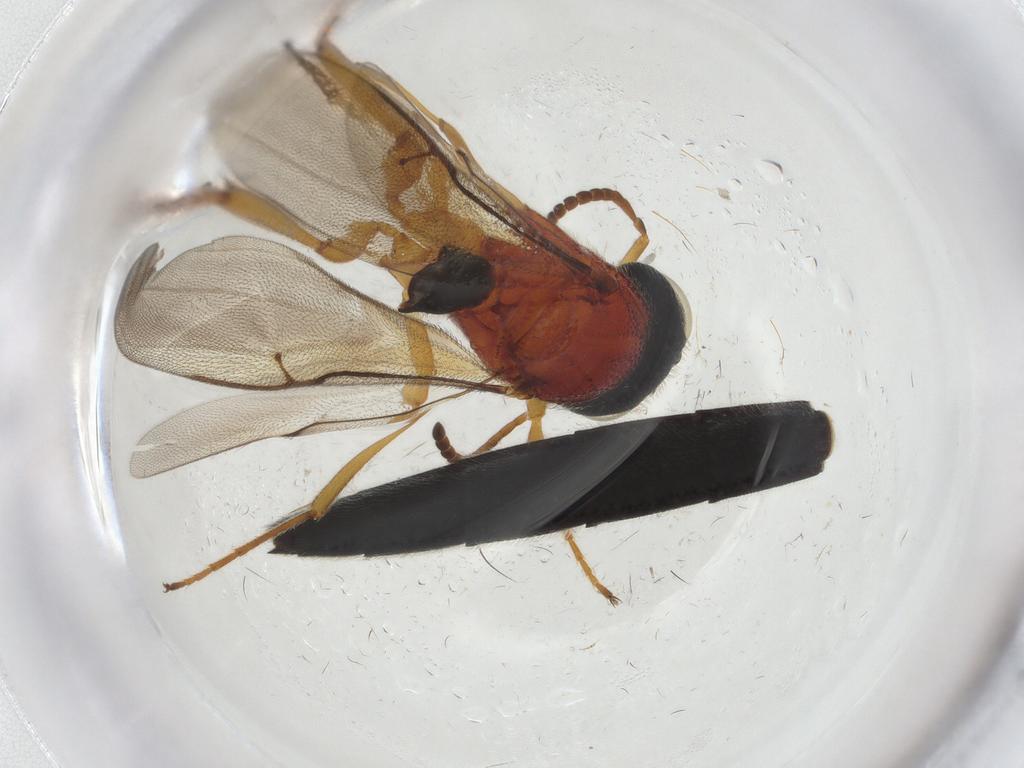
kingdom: Animalia
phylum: Arthropoda
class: Insecta
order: Hymenoptera
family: Scelionidae
